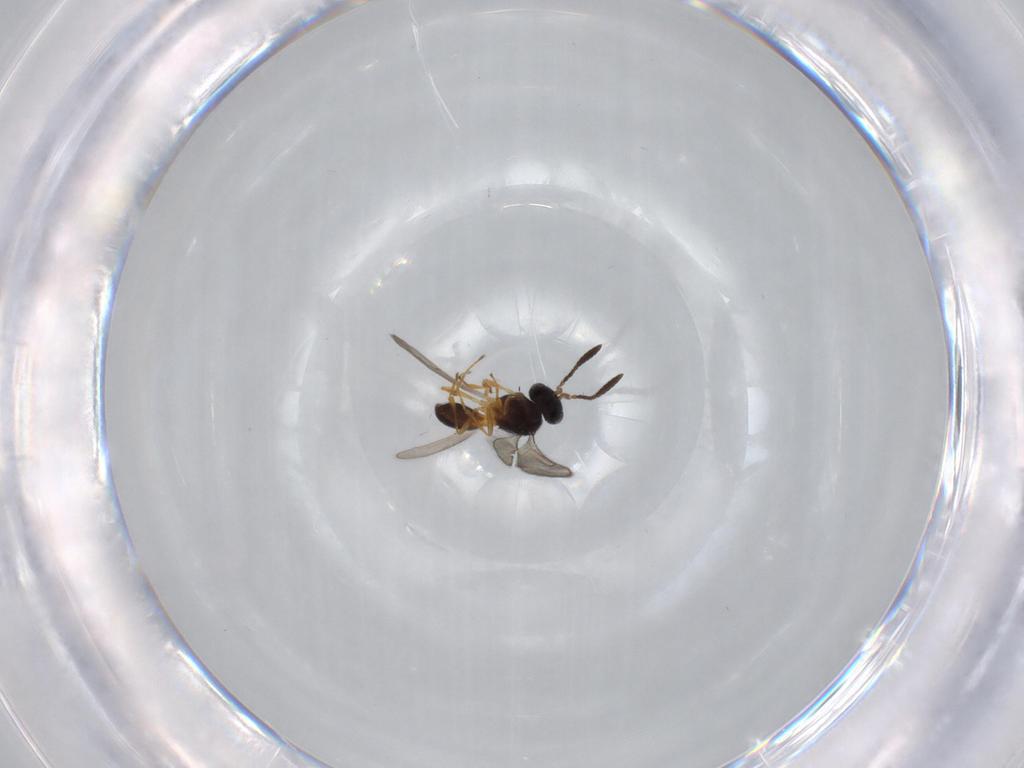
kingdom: Animalia
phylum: Arthropoda
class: Insecta
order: Hymenoptera
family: Scelionidae
